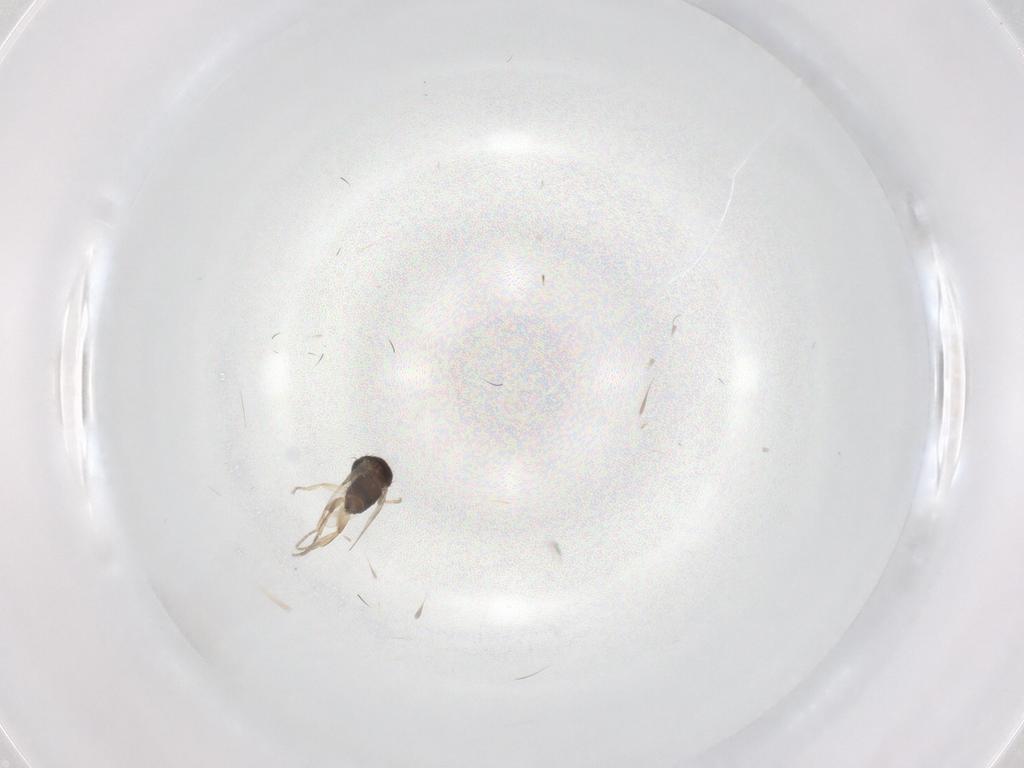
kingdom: Animalia
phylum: Arthropoda
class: Insecta
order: Diptera
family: Phoridae
